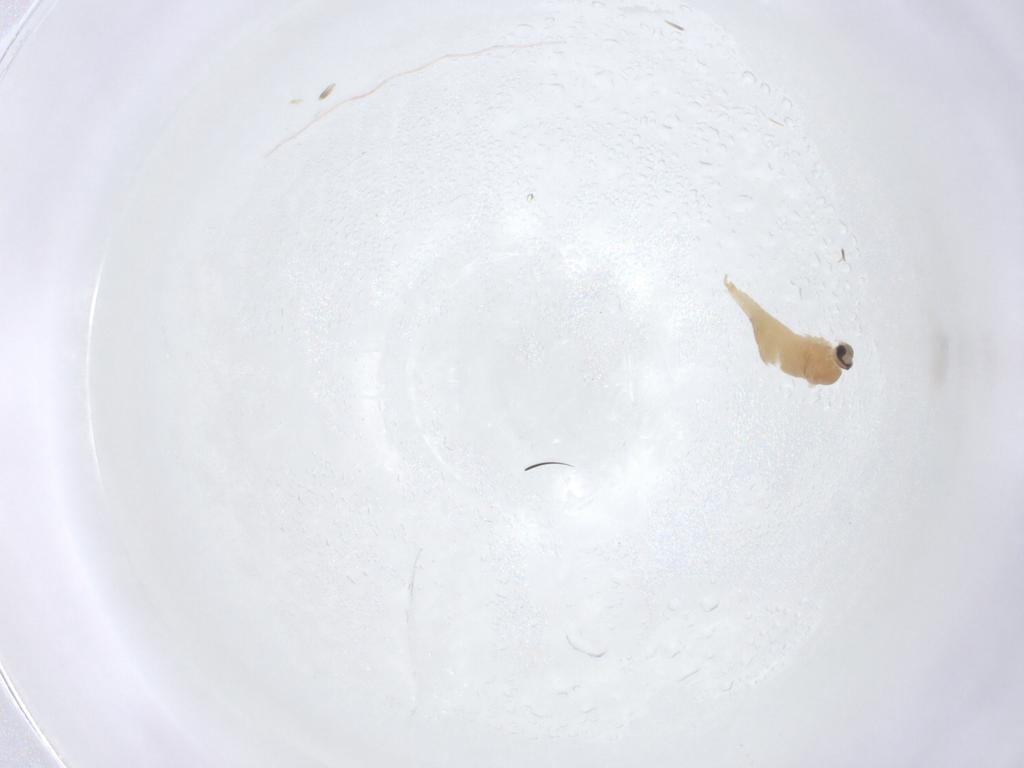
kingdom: Animalia
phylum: Arthropoda
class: Insecta
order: Diptera
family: Cecidomyiidae
